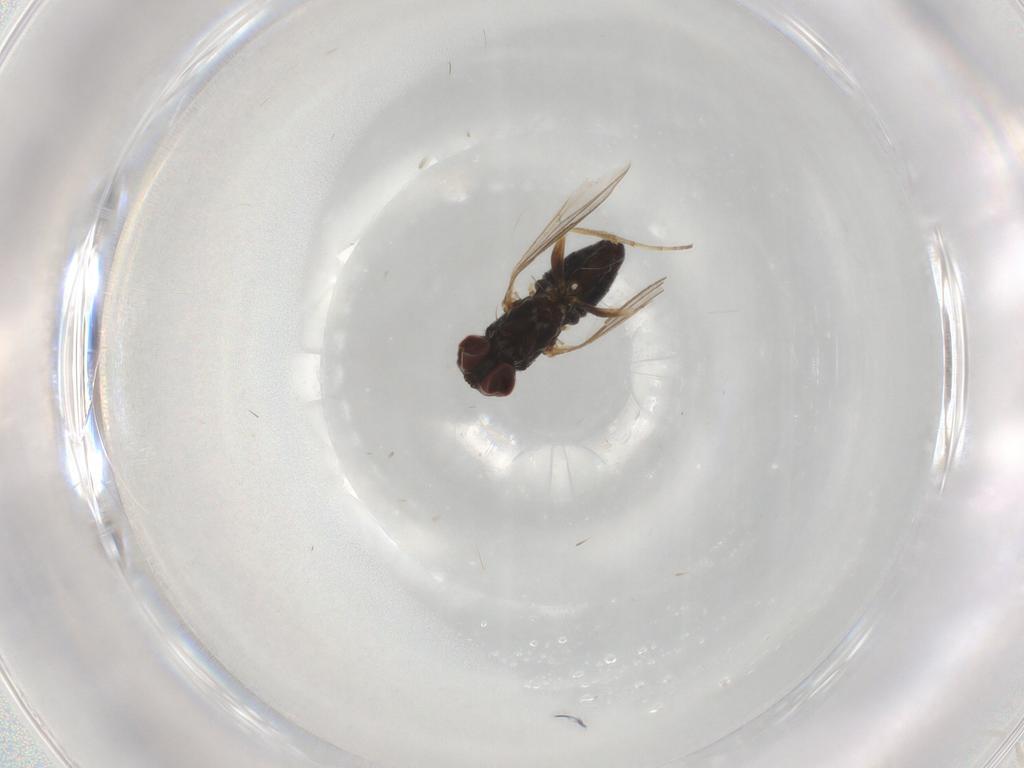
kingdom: Animalia
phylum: Arthropoda
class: Insecta
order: Diptera
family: Dolichopodidae
